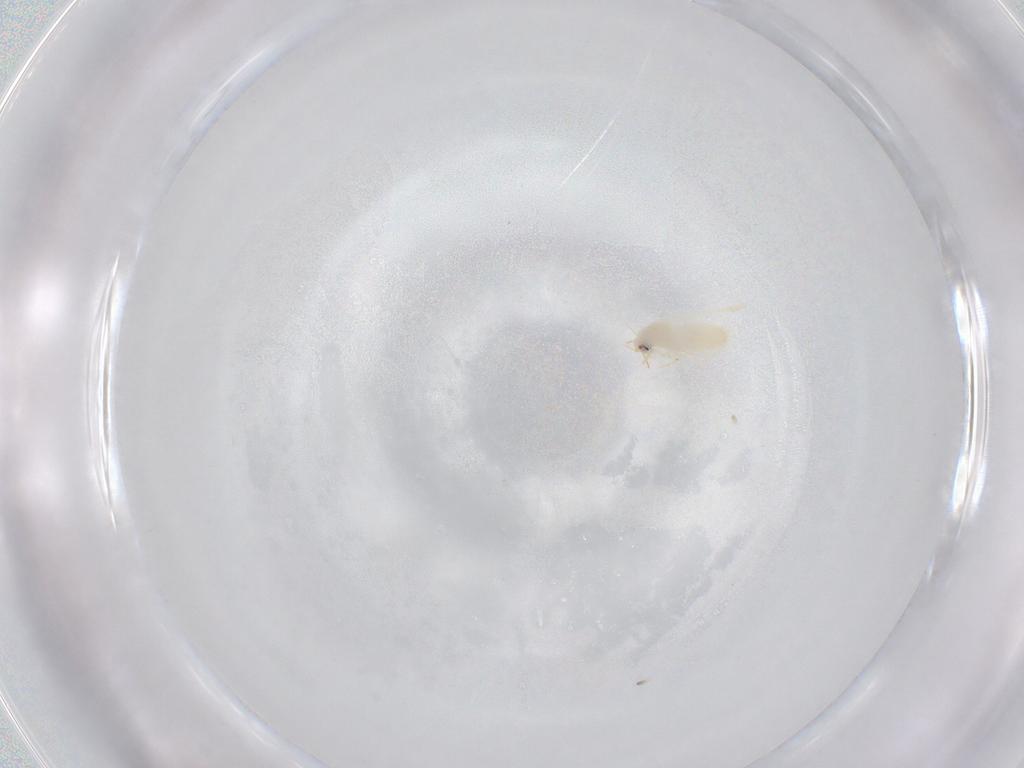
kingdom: Animalia
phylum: Arthropoda
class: Insecta
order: Hemiptera
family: Aleyrodidae
